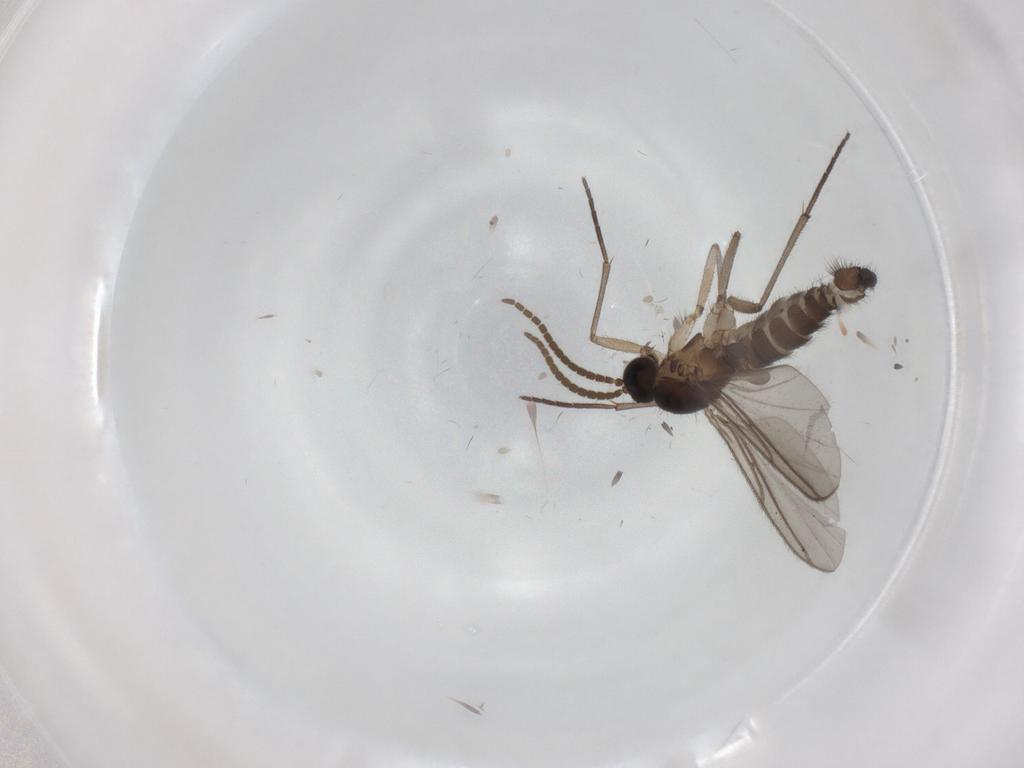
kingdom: Animalia
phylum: Arthropoda
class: Insecta
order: Diptera
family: Sciaridae
